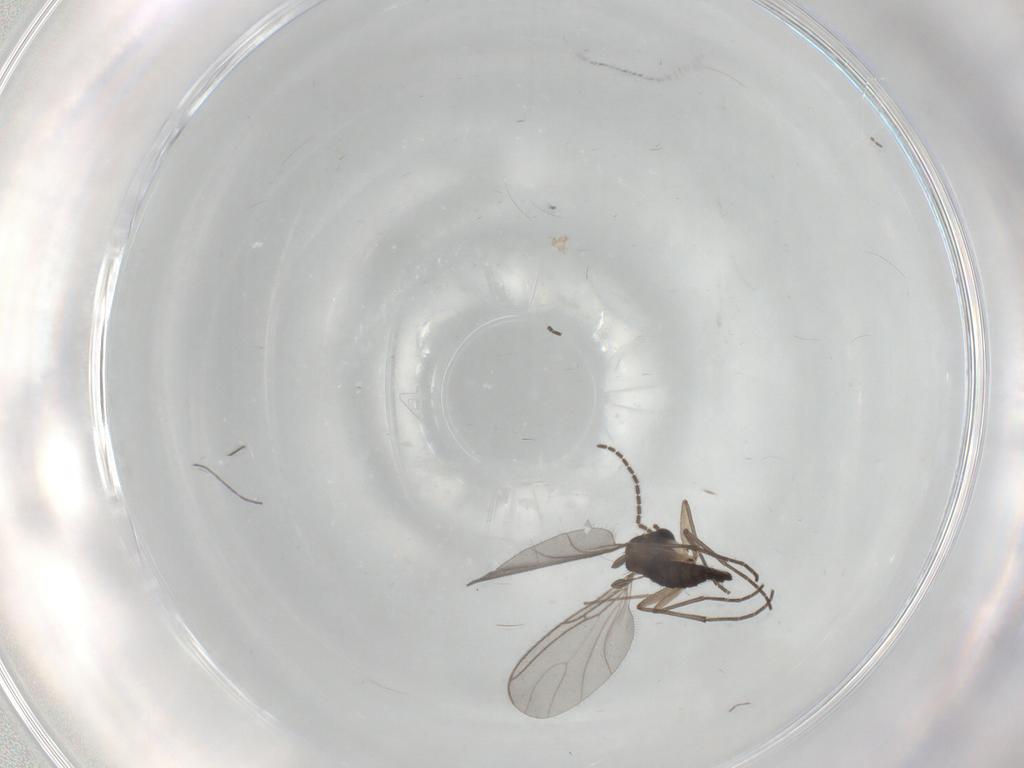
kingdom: Animalia
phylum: Arthropoda
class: Insecta
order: Diptera
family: Sciaridae
